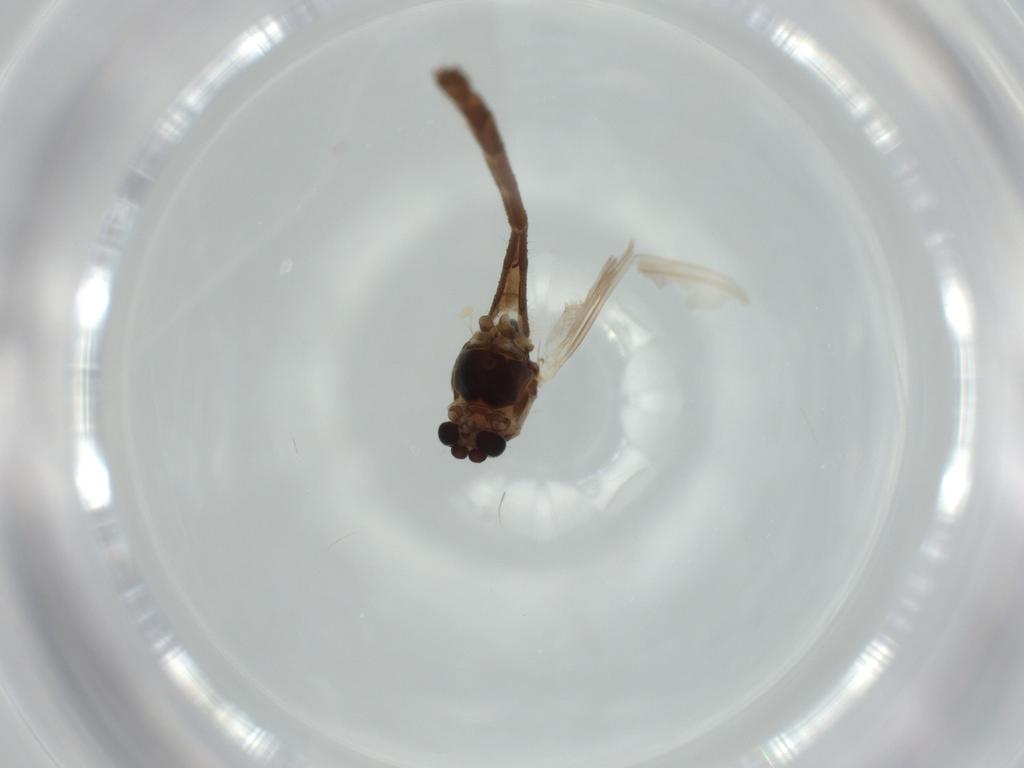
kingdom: Animalia
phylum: Arthropoda
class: Insecta
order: Diptera
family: Chironomidae
